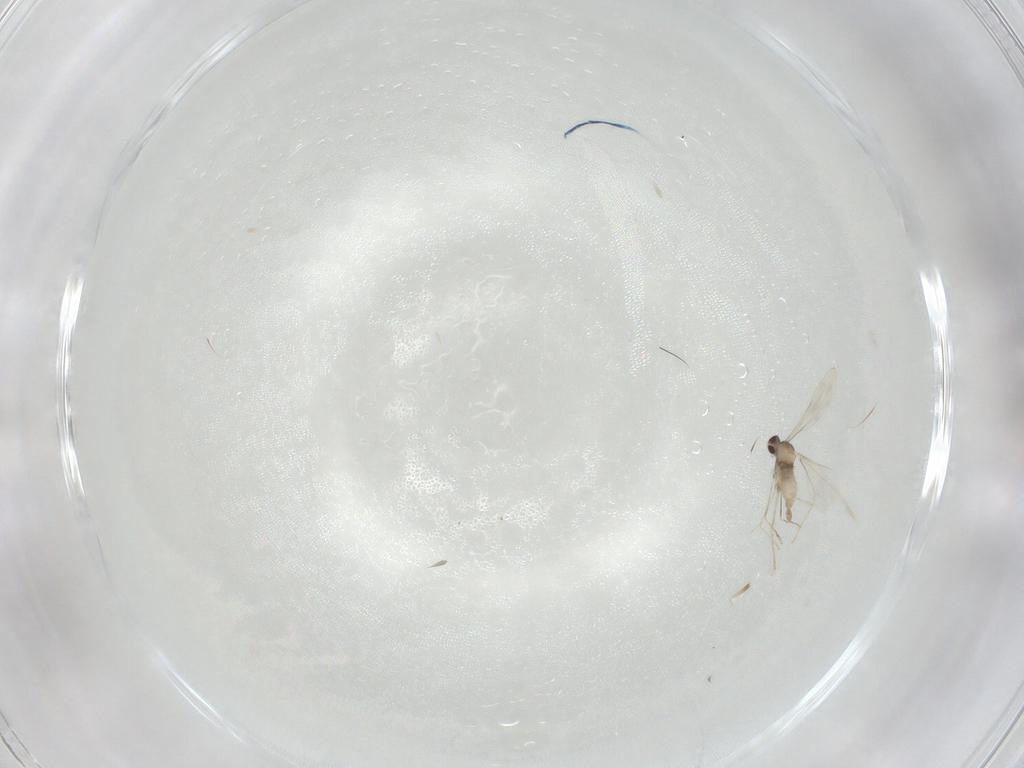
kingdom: Animalia
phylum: Arthropoda
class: Insecta
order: Diptera
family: Cecidomyiidae
